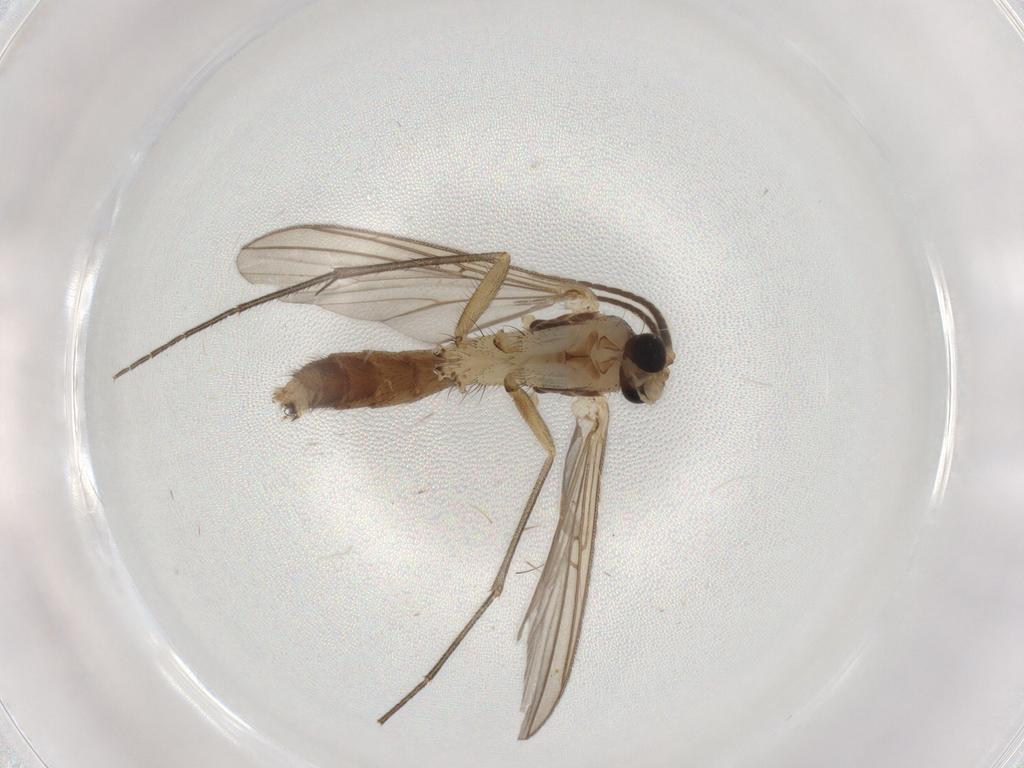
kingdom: Animalia
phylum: Arthropoda
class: Insecta
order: Diptera
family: Mycetophilidae
